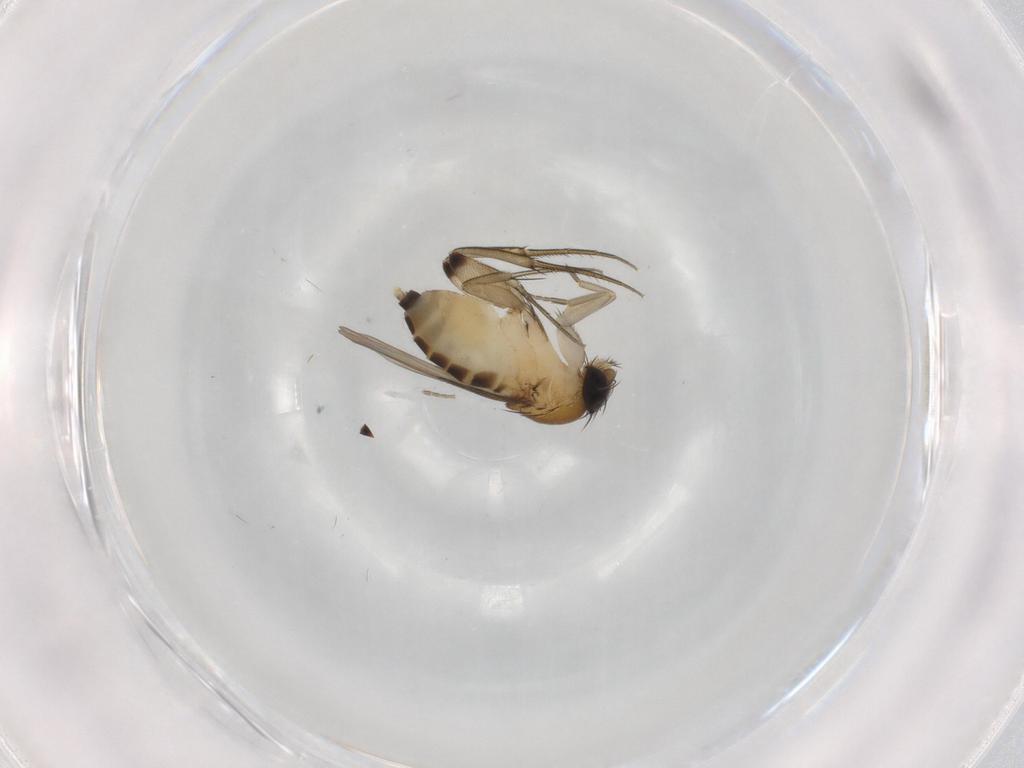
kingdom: Animalia
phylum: Arthropoda
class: Insecta
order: Diptera
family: Phoridae
